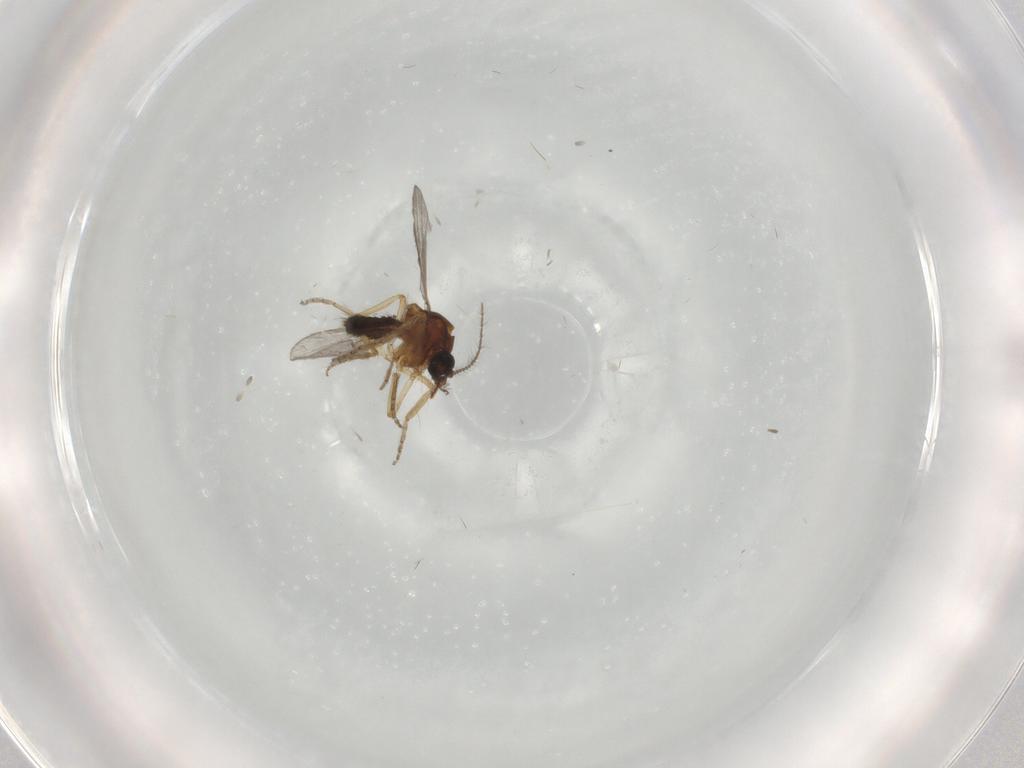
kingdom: Animalia
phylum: Arthropoda
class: Insecta
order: Diptera
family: Ceratopogonidae
